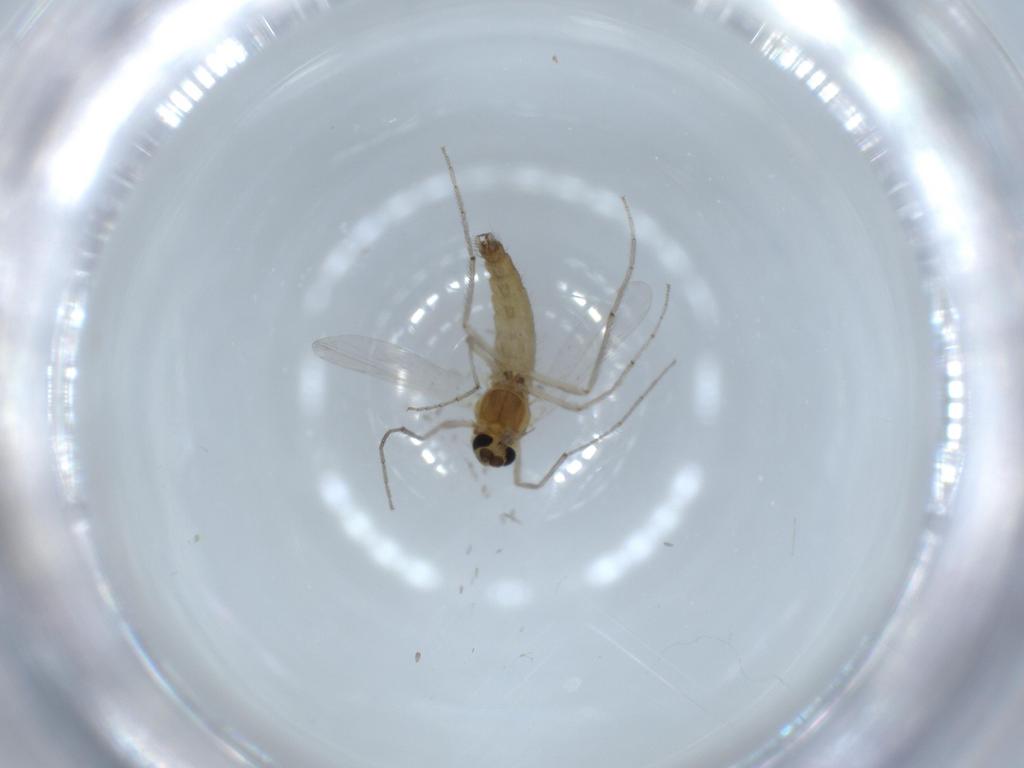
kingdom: Animalia
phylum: Arthropoda
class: Insecta
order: Diptera
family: Chironomidae
